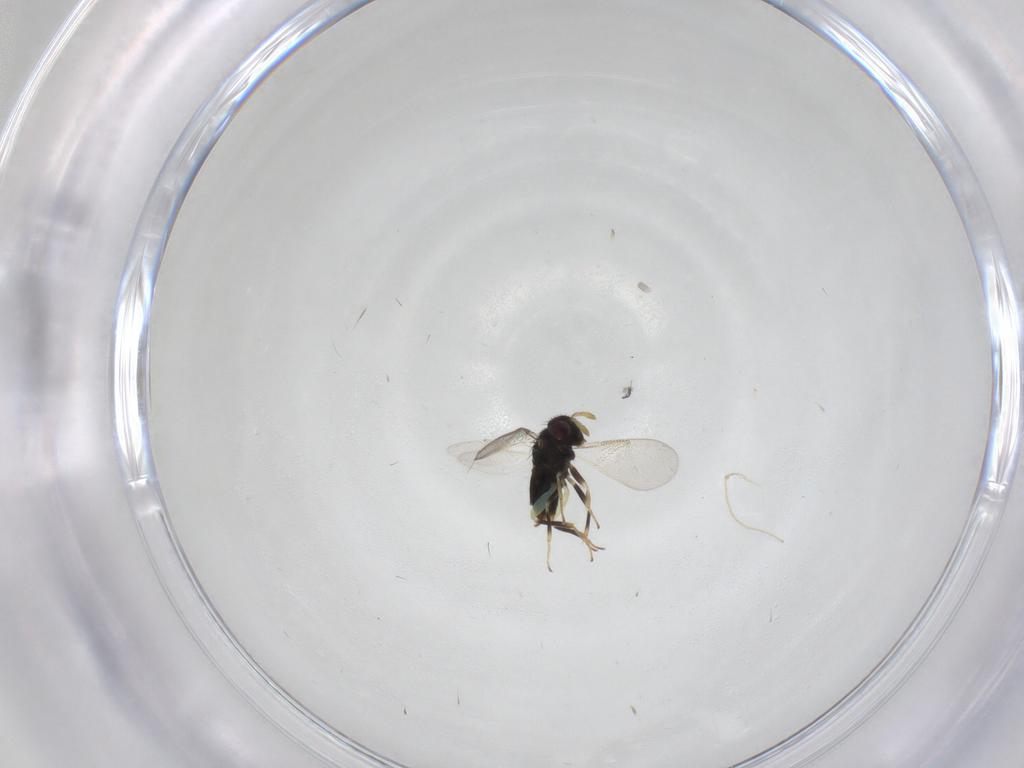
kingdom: Animalia
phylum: Arthropoda
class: Insecta
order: Hymenoptera
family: Aphelinidae
